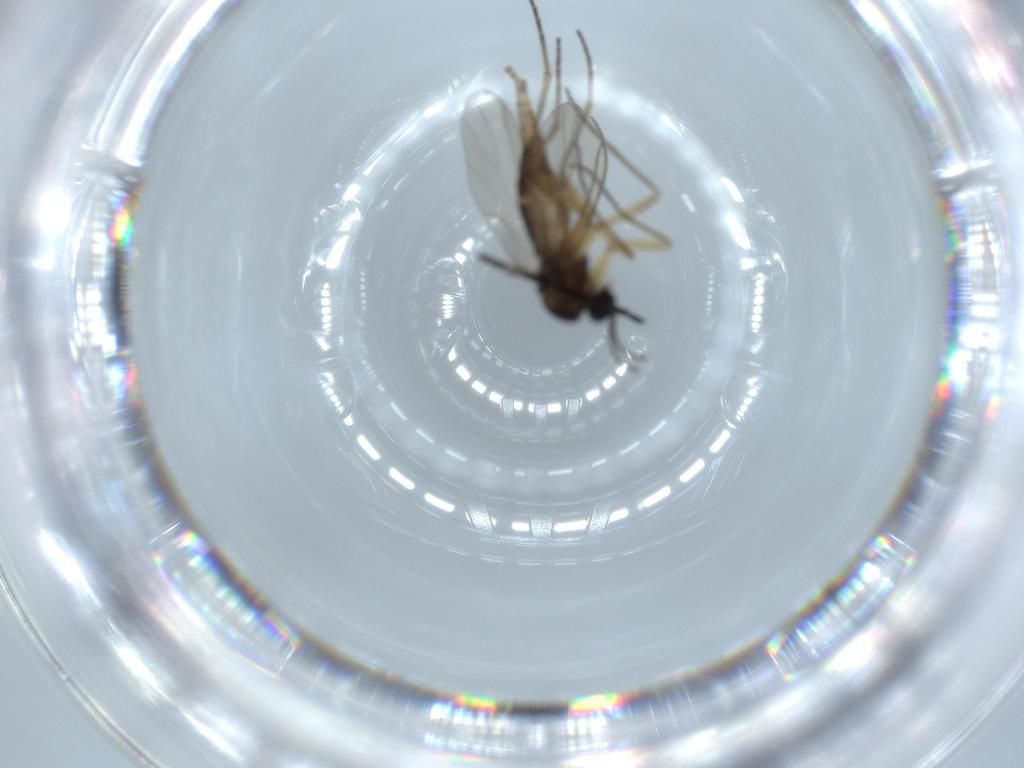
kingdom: Animalia
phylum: Arthropoda
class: Insecta
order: Diptera
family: Sciaridae
